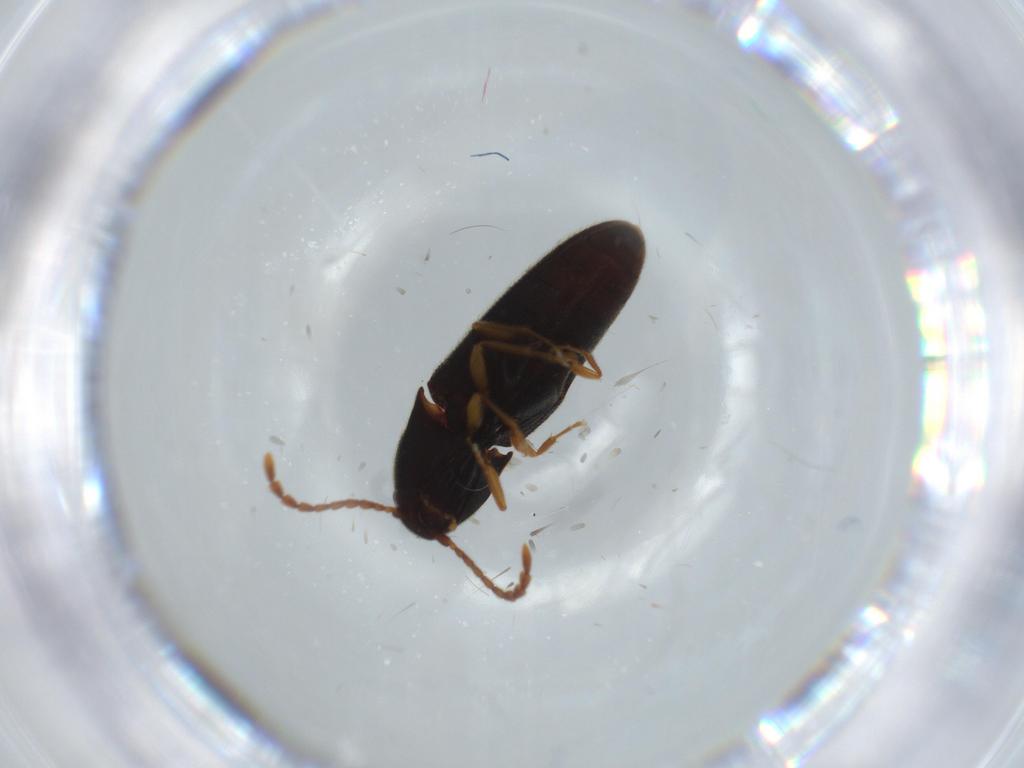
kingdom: Animalia
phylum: Arthropoda
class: Insecta
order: Coleoptera
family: Elateridae
